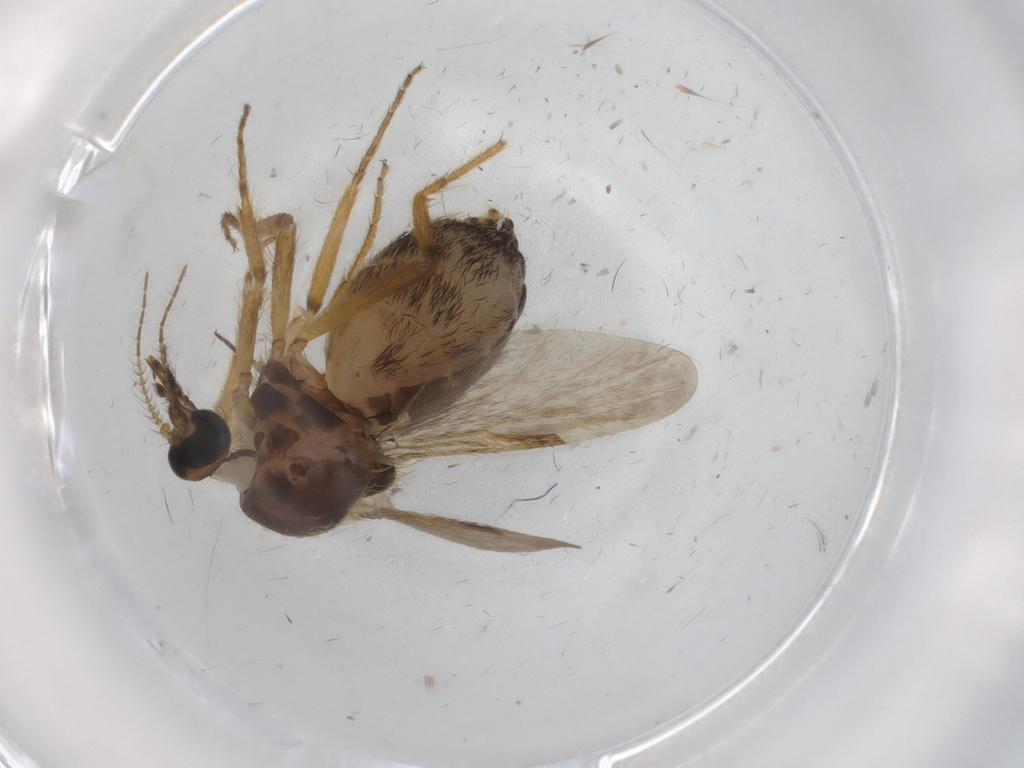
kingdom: Animalia
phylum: Arthropoda
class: Insecta
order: Diptera
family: Ceratopogonidae
